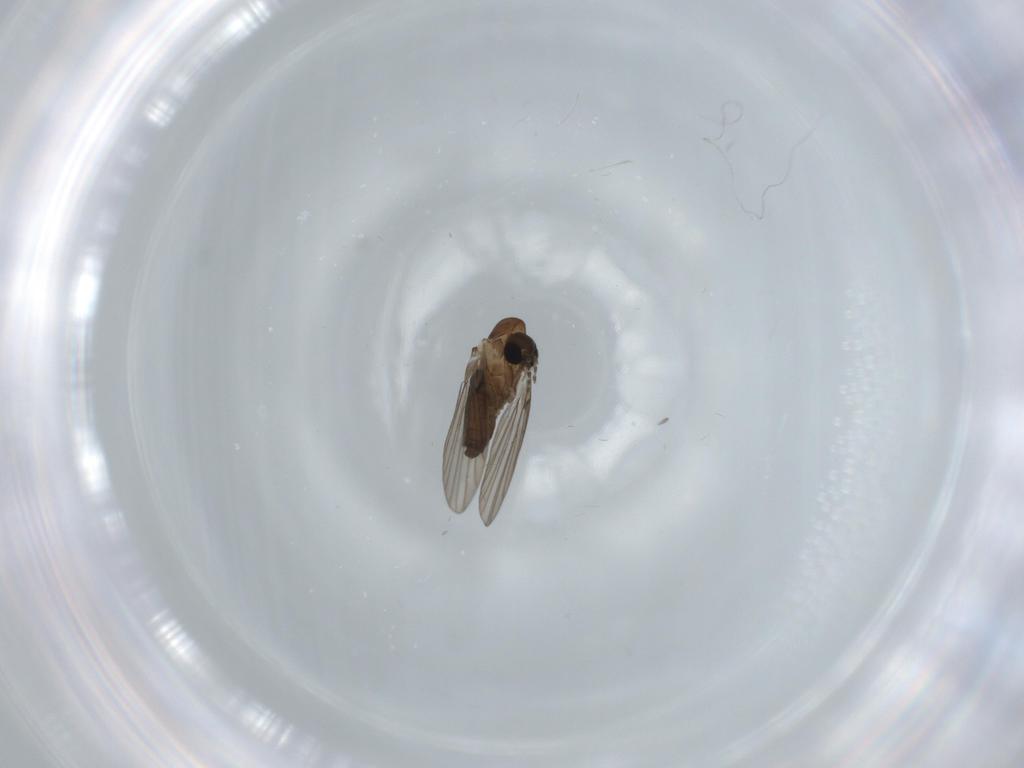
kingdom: Animalia
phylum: Arthropoda
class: Insecta
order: Diptera
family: Psychodidae
